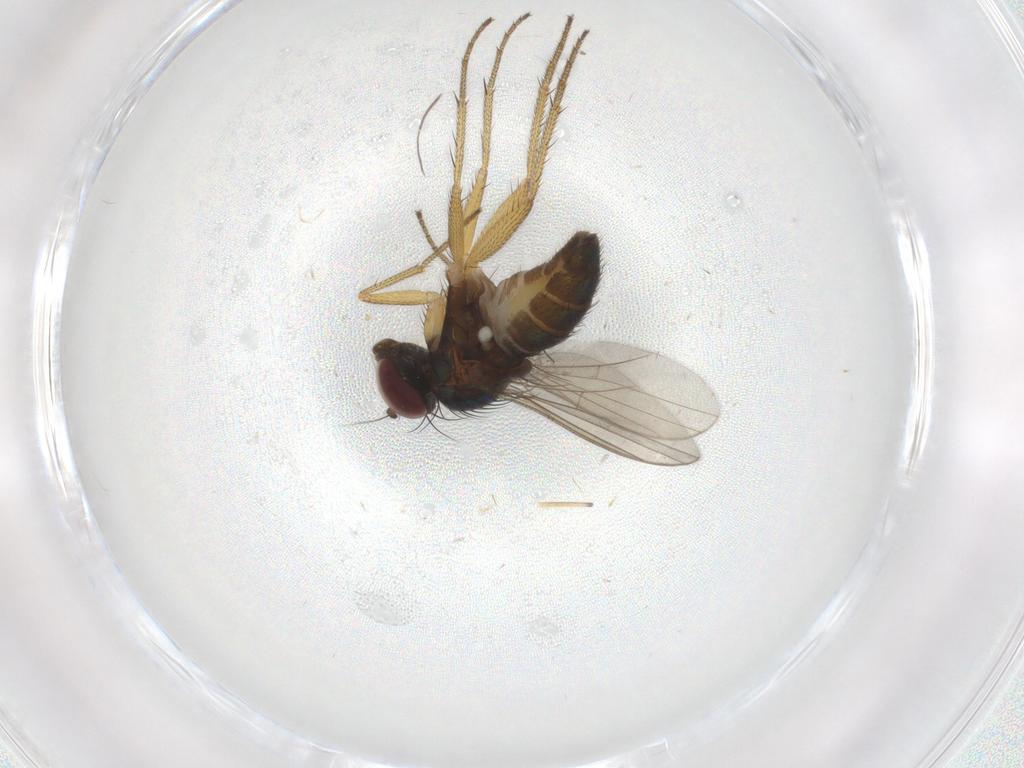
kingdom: Animalia
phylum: Arthropoda
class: Insecta
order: Diptera
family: Dolichopodidae
